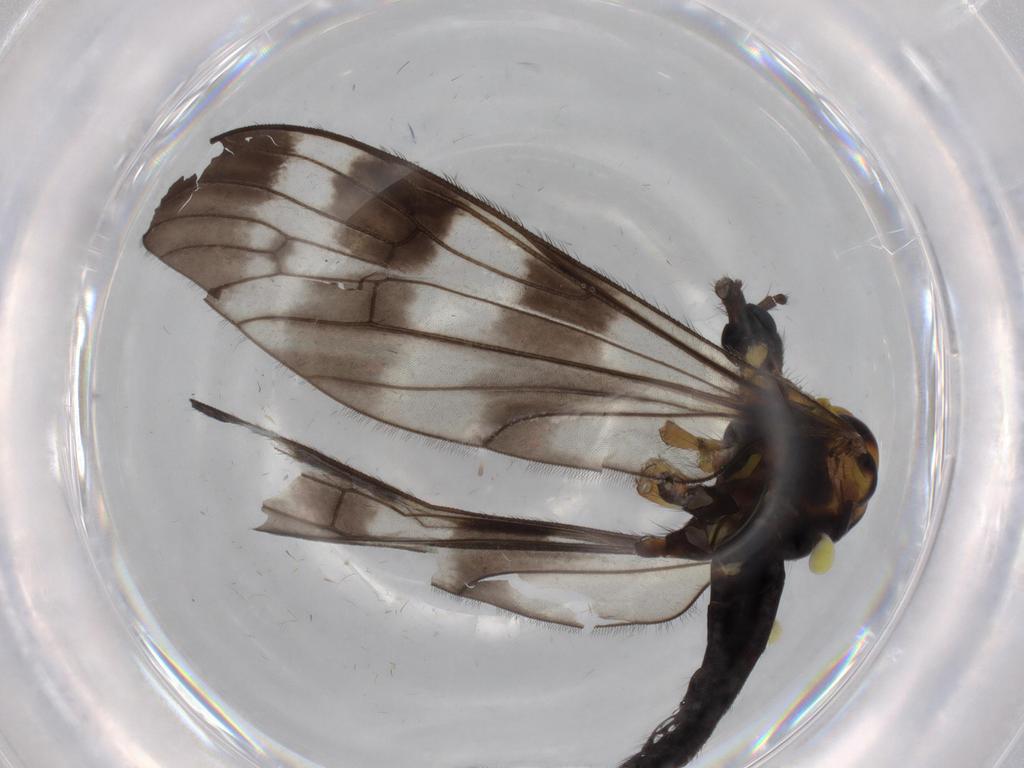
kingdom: Animalia
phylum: Arthropoda
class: Insecta
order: Diptera
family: Limoniidae
